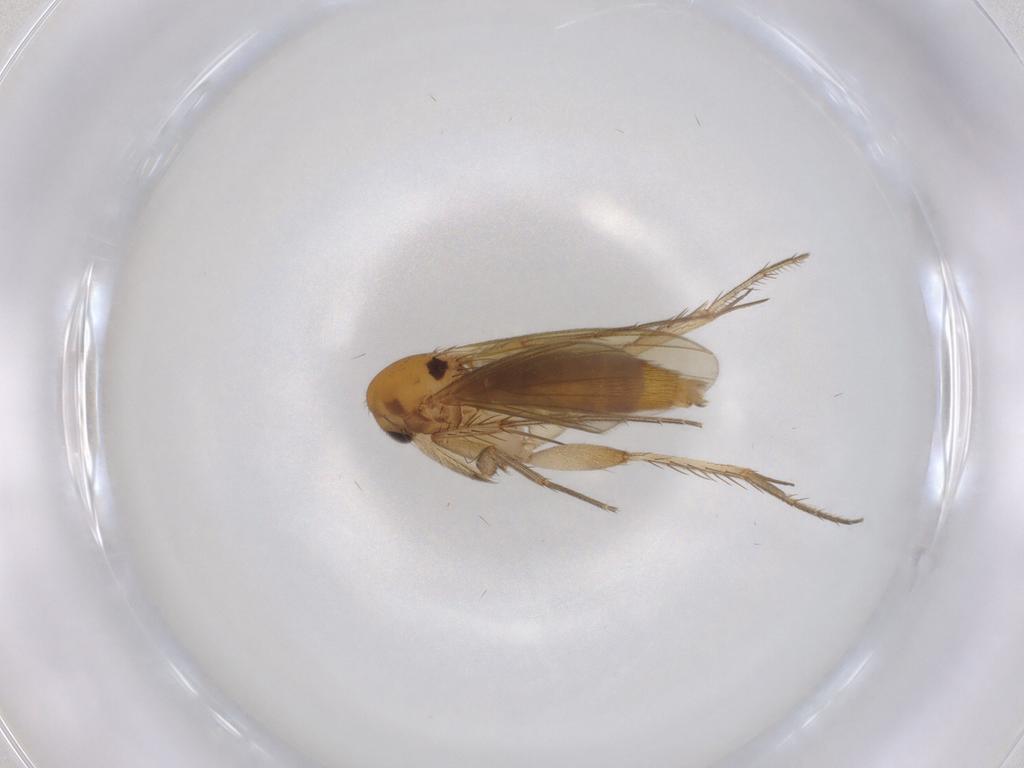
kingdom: Animalia
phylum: Arthropoda
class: Insecta
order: Diptera
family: Mycetophilidae
